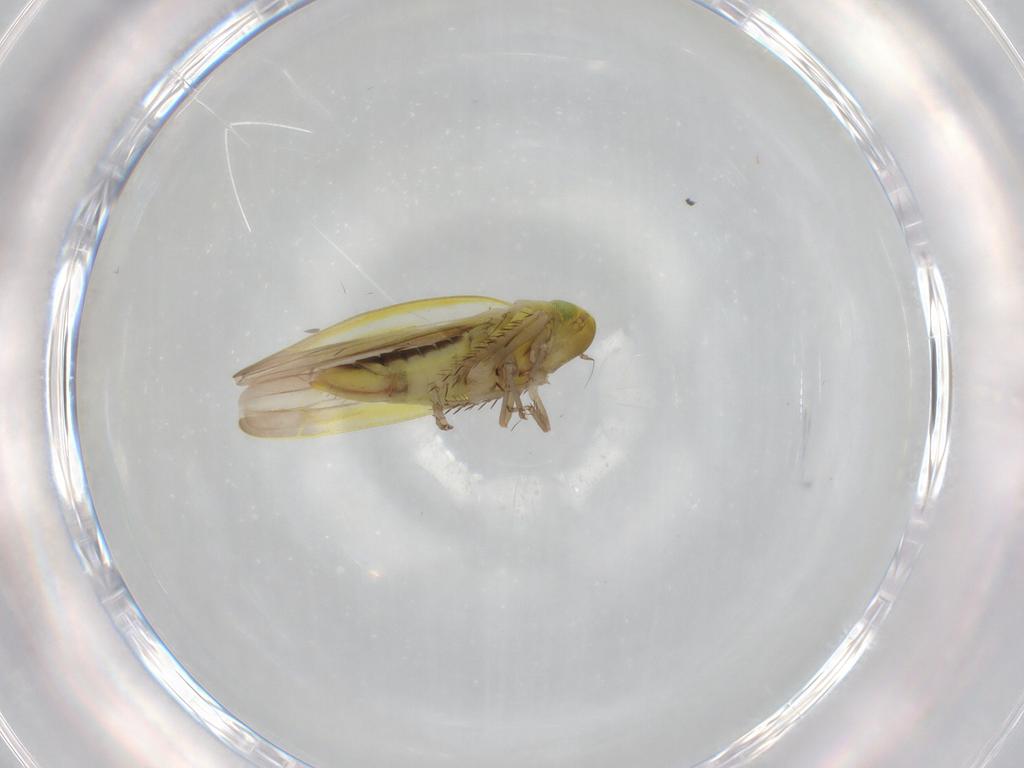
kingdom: Animalia
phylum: Arthropoda
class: Insecta
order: Hemiptera
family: Cicadellidae
